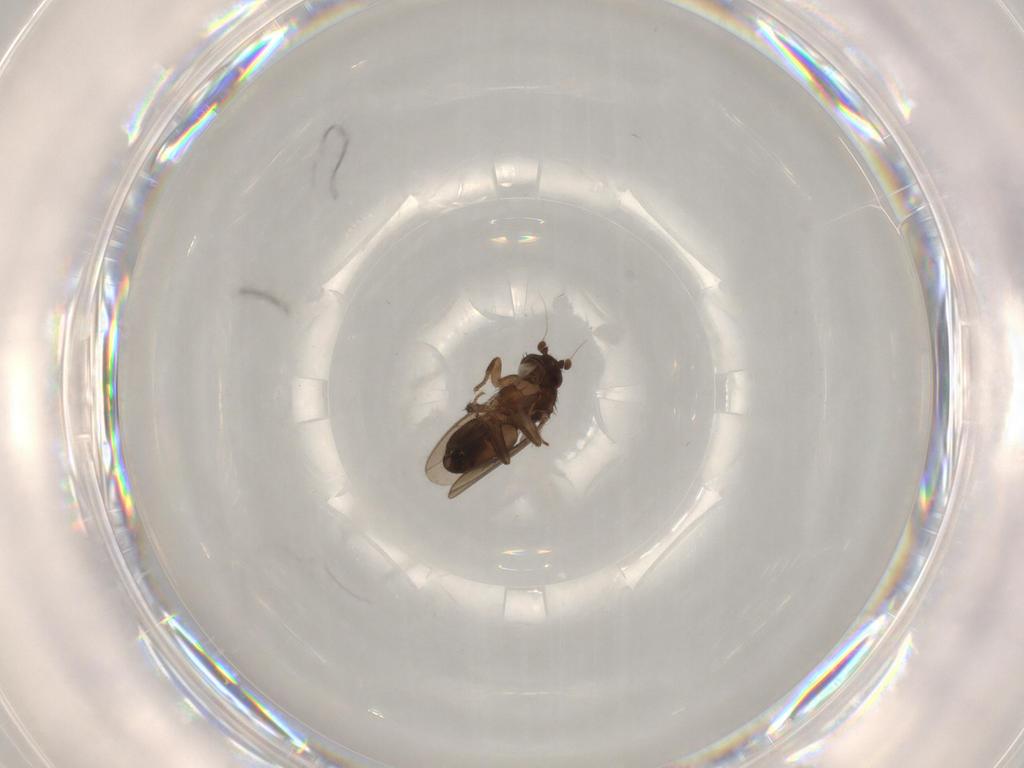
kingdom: Animalia
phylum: Arthropoda
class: Insecta
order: Diptera
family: Sphaeroceridae
